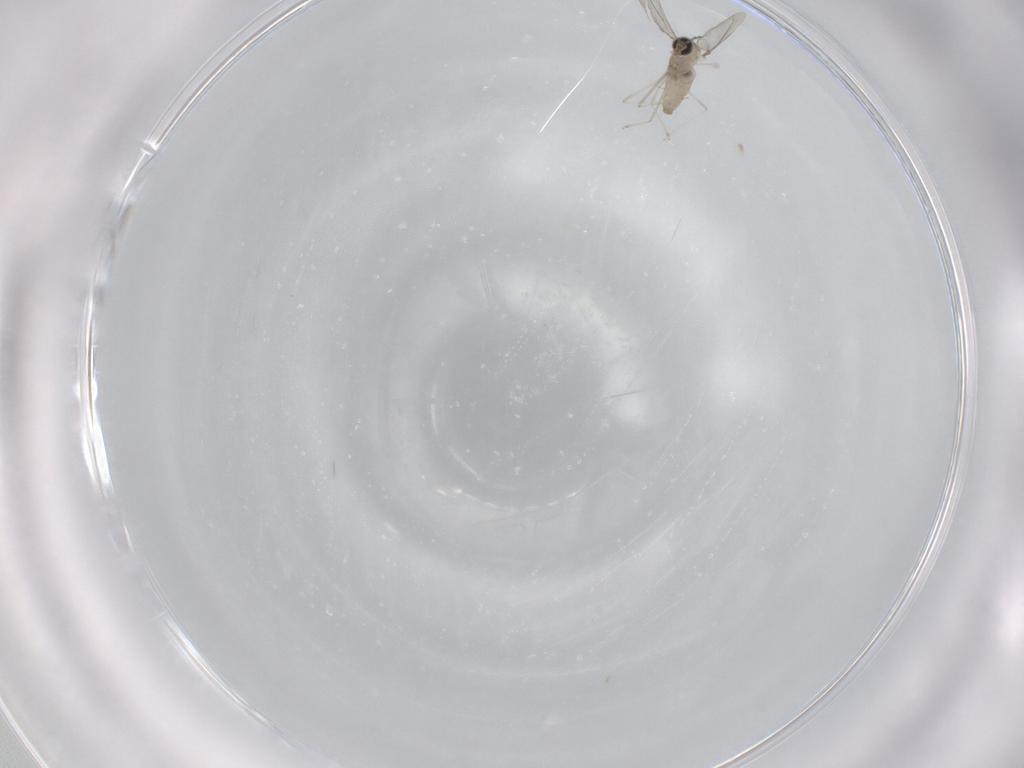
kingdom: Animalia
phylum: Arthropoda
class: Insecta
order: Diptera
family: Cecidomyiidae
